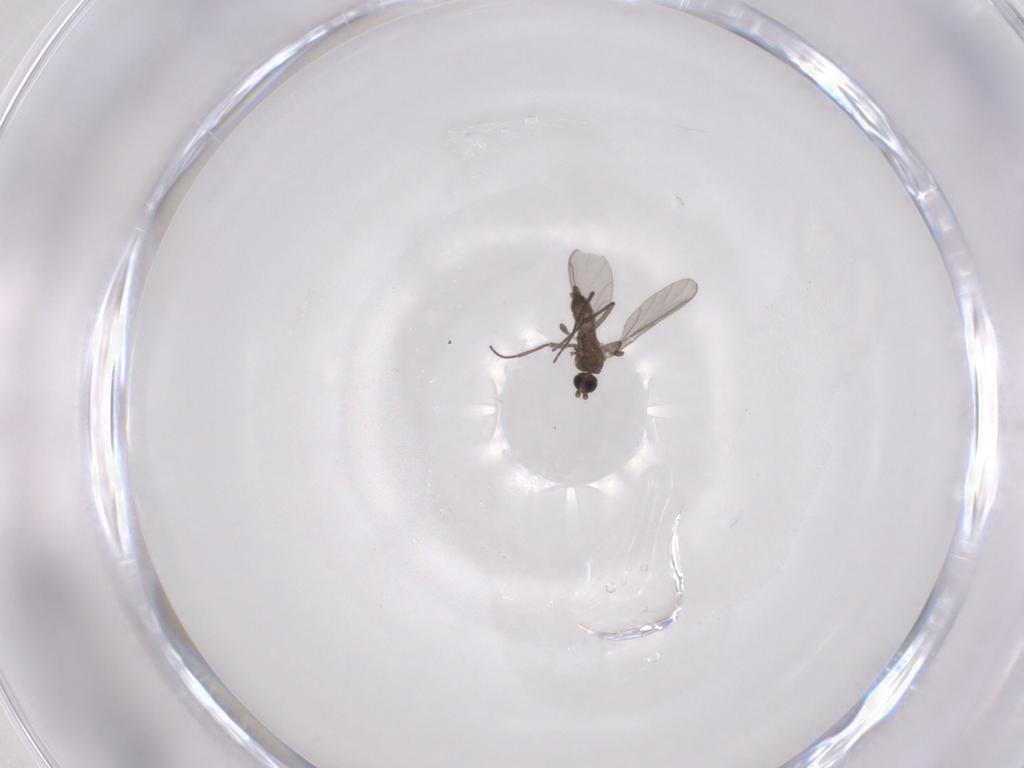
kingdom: Animalia
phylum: Arthropoda
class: Insecta
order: Diptera
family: Sciaridae
